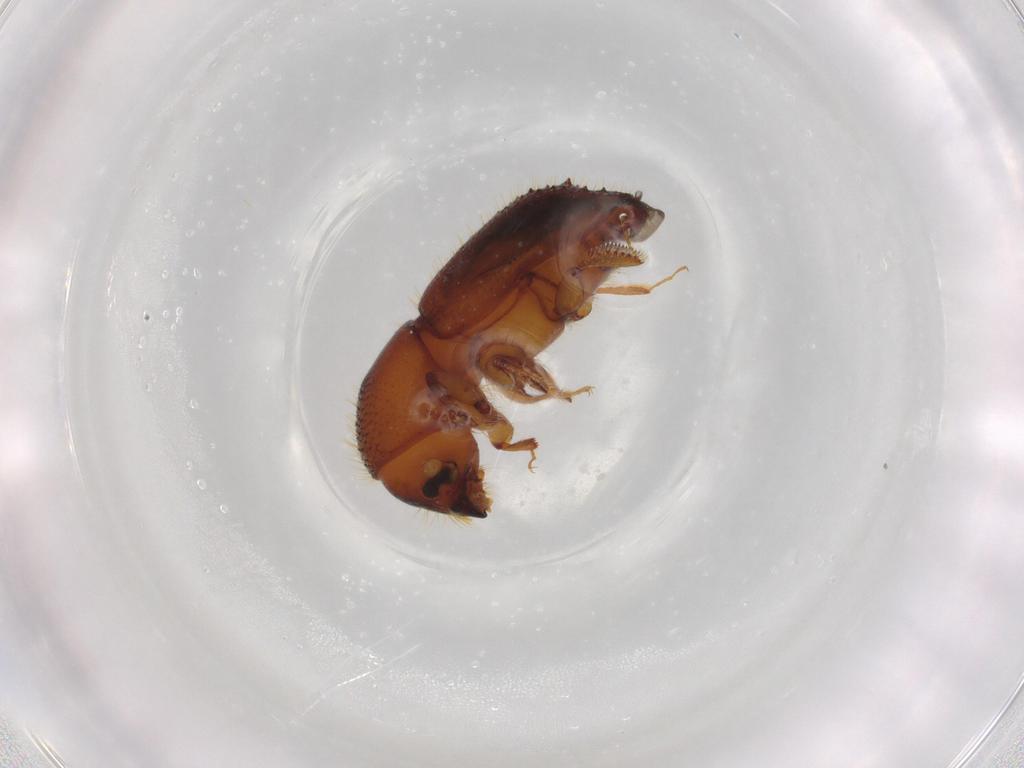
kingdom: Animalia
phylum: Arthropoda
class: Insecta
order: Coleoptera
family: Curculionidae
